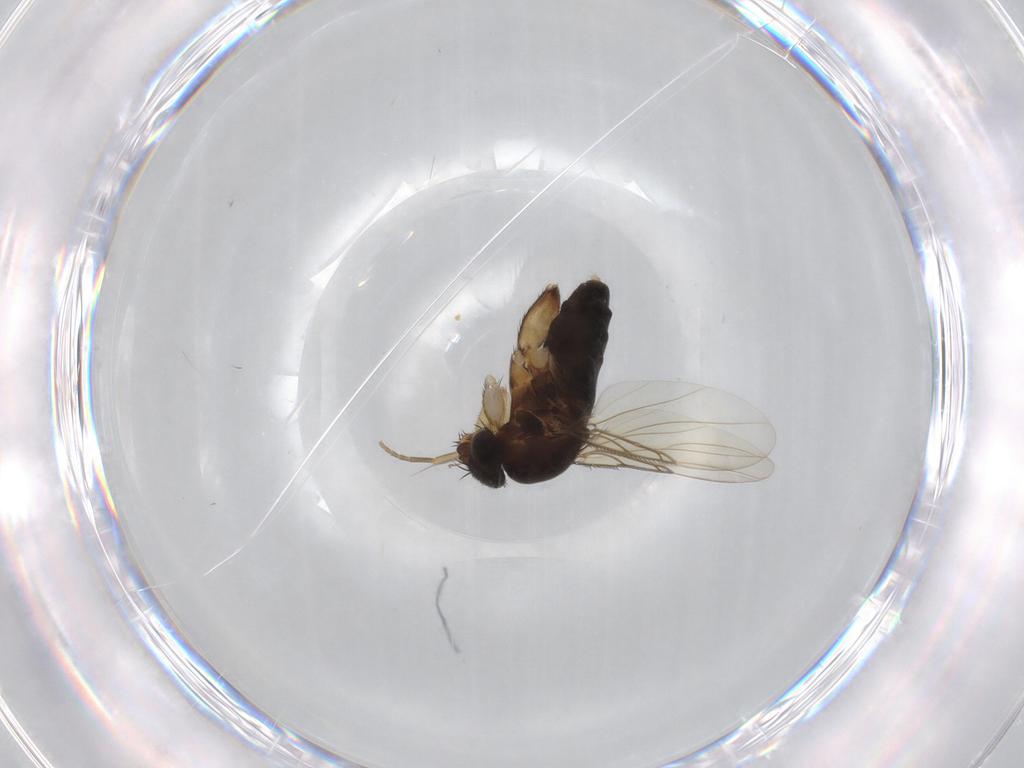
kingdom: Animalia
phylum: Arthropoda
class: Insecta
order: Diptera
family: Phoridae
